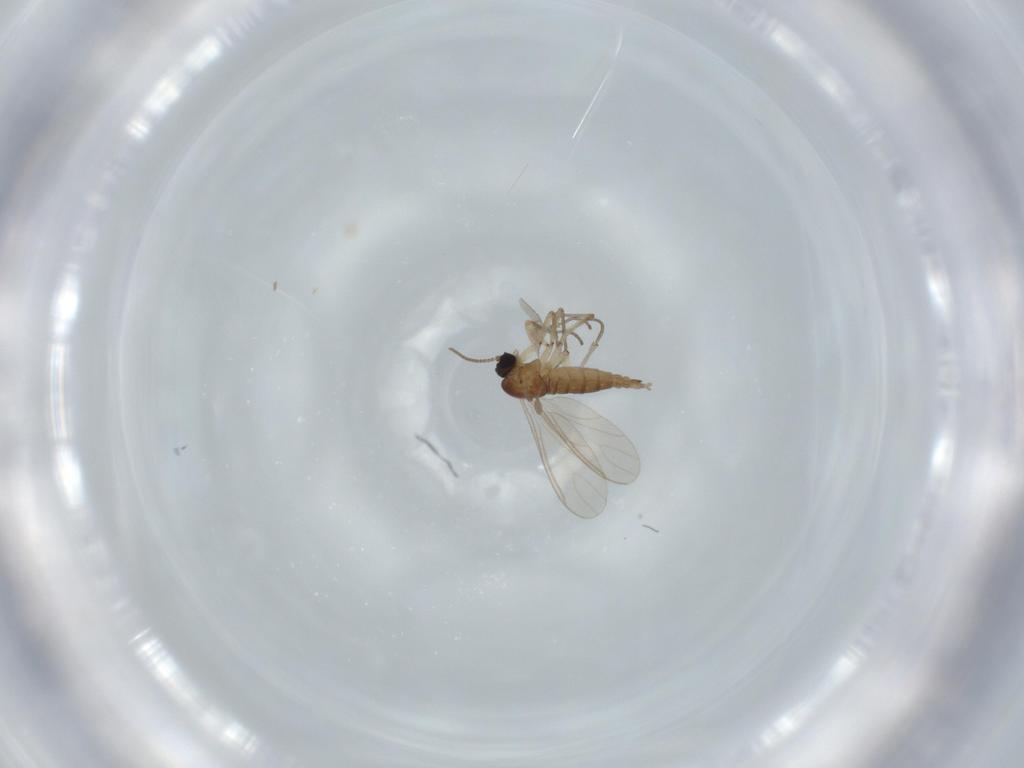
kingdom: Animalia
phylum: Arthropoda
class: Insecta
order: Diptera
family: Sciaridae
